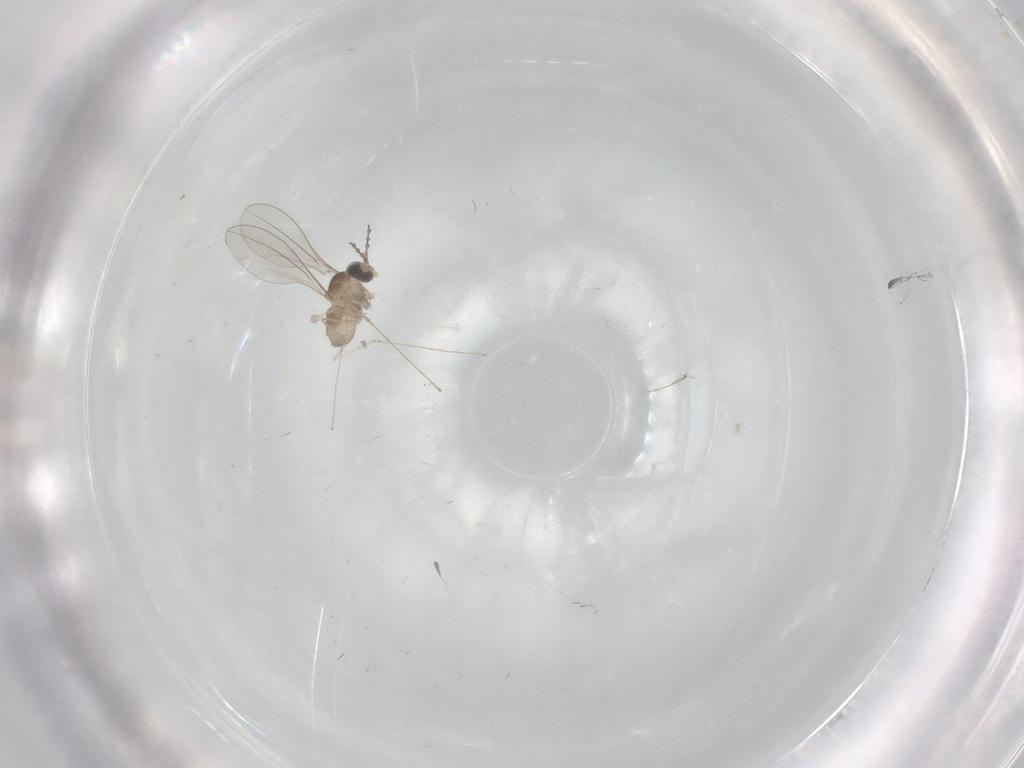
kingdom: Animalia
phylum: Arthropoda
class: Insecta
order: Diptera
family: Cecidomyiidae
